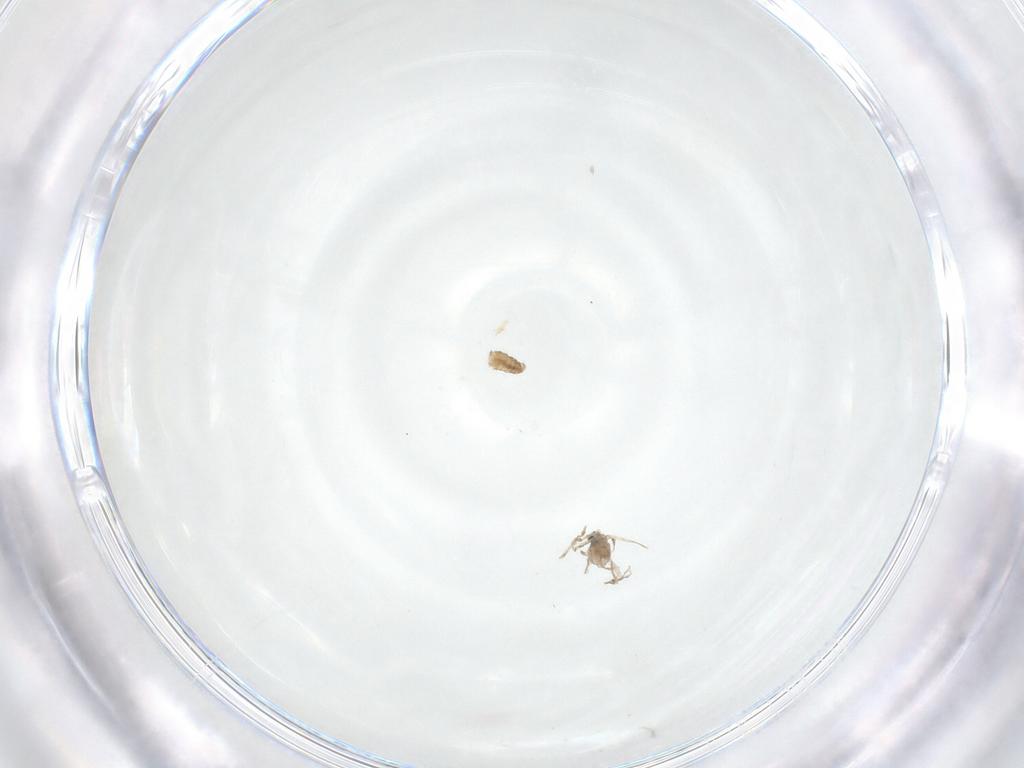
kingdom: Animalia
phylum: Arthropoda
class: Insecta
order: Diptera
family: Cecidomyiidae
